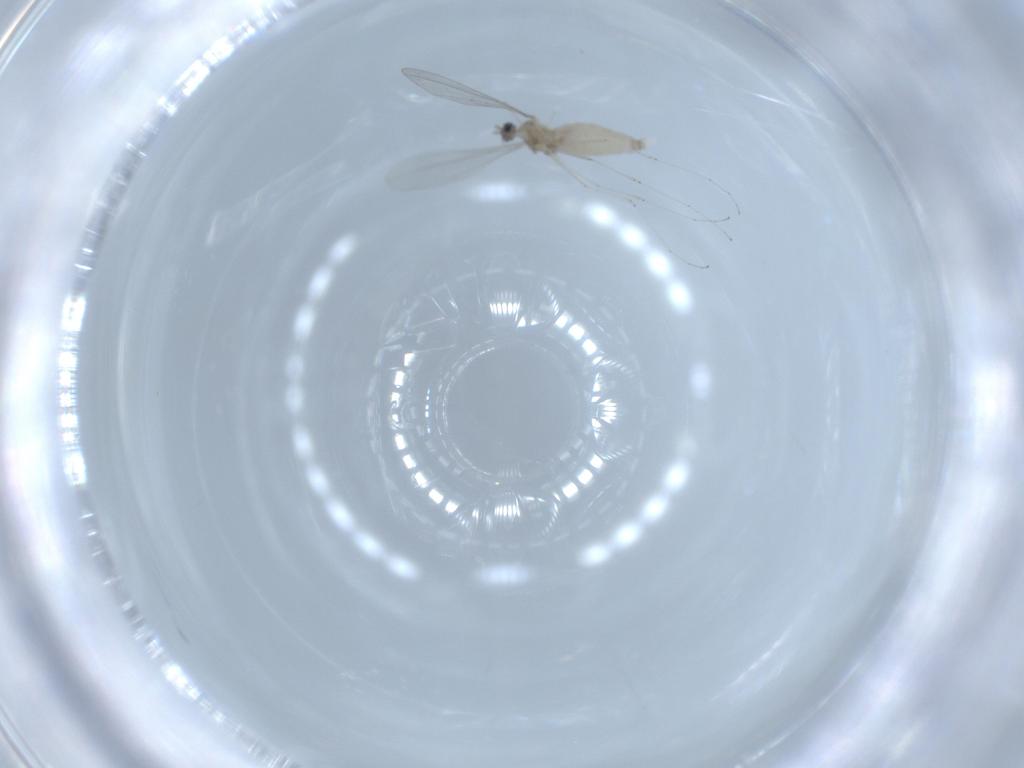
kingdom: Animalia
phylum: Arthropoda
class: Insecta
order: Diptera
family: Cecidomyiidae
